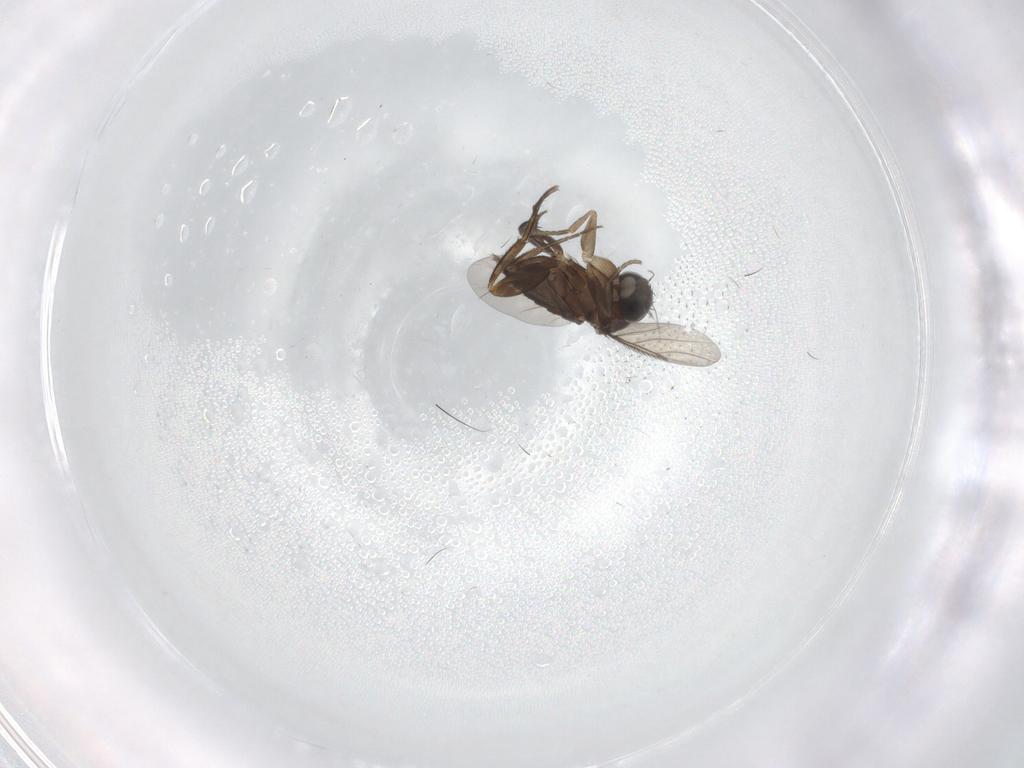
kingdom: Animalia
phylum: Arthropoda
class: Insecta
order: Diptera
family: Phoridae
